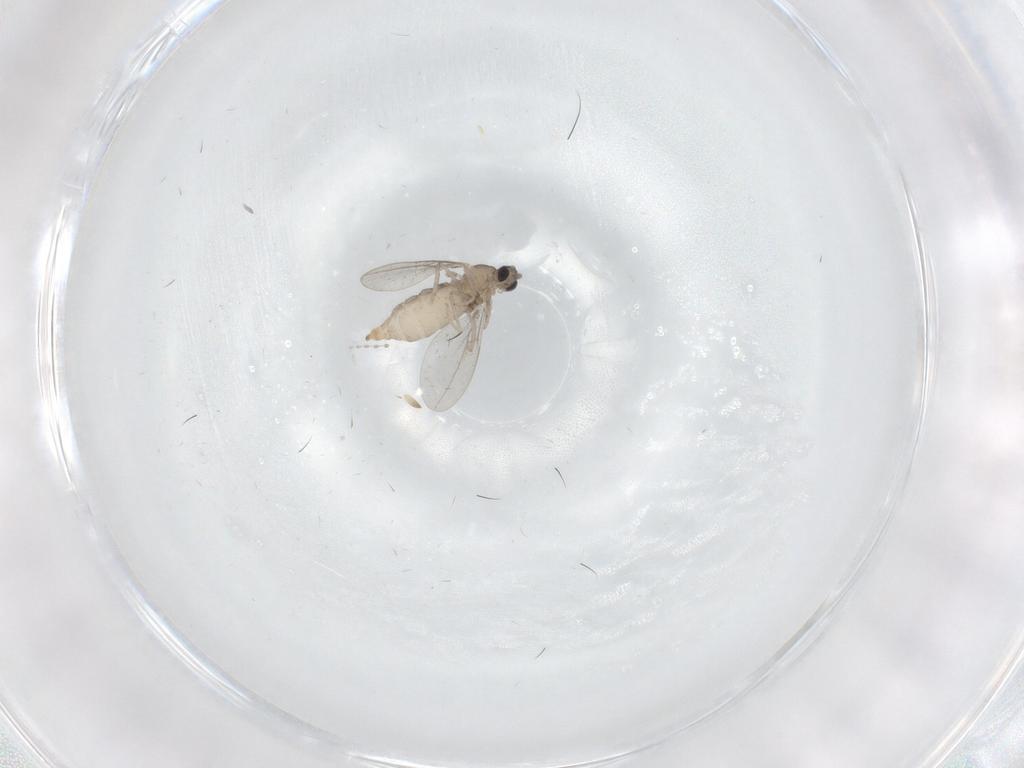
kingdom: Animalia
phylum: Arthropoda
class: Insecta
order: Diptera
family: Cecidomyiidae
